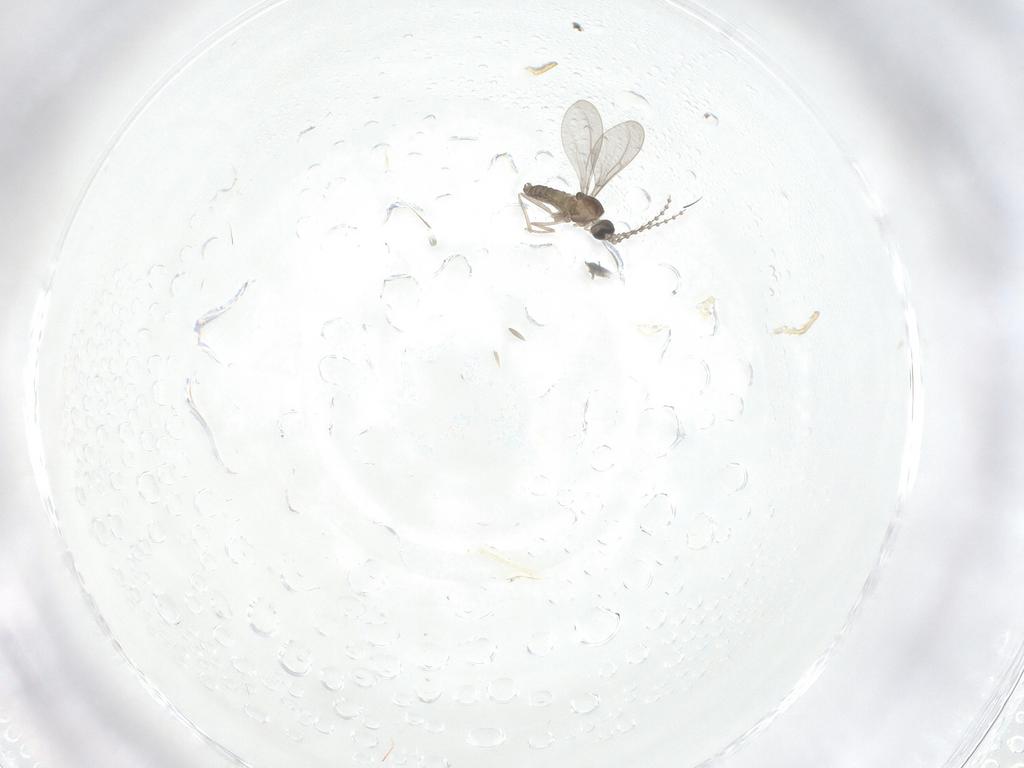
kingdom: Animalia
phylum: Arthropoda
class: Insecta
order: Diptera
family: Cecidomyiidae
